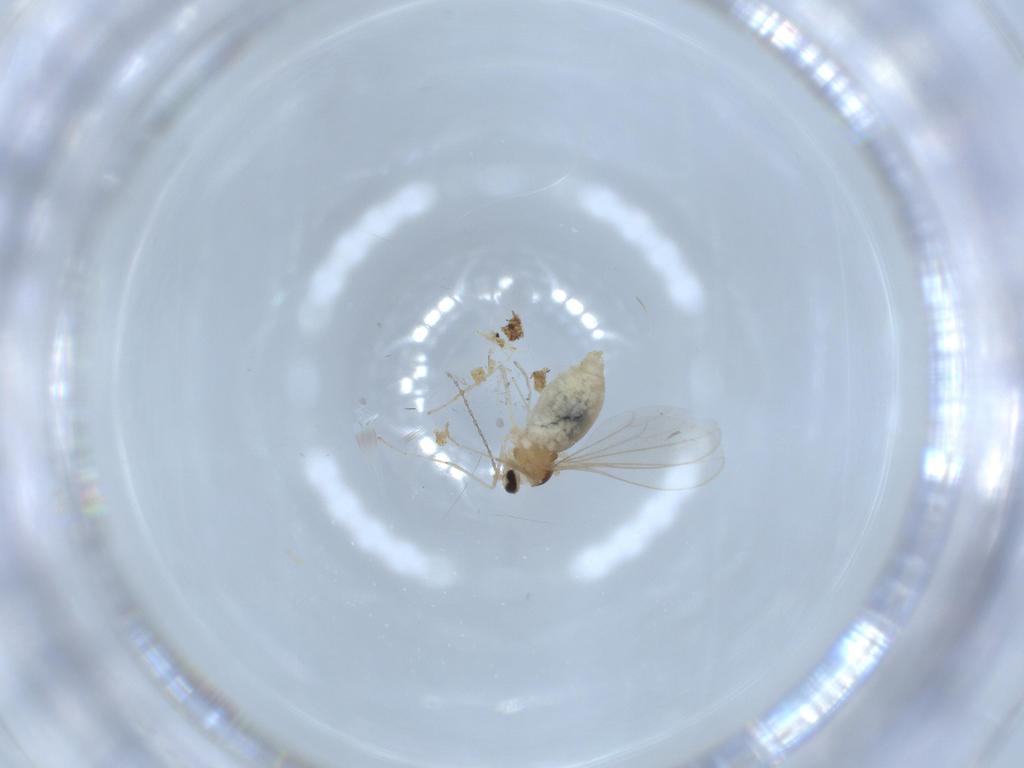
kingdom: Animalia
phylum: Arthropoda
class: Insecta
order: Diptera
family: Cecidomyiidae
